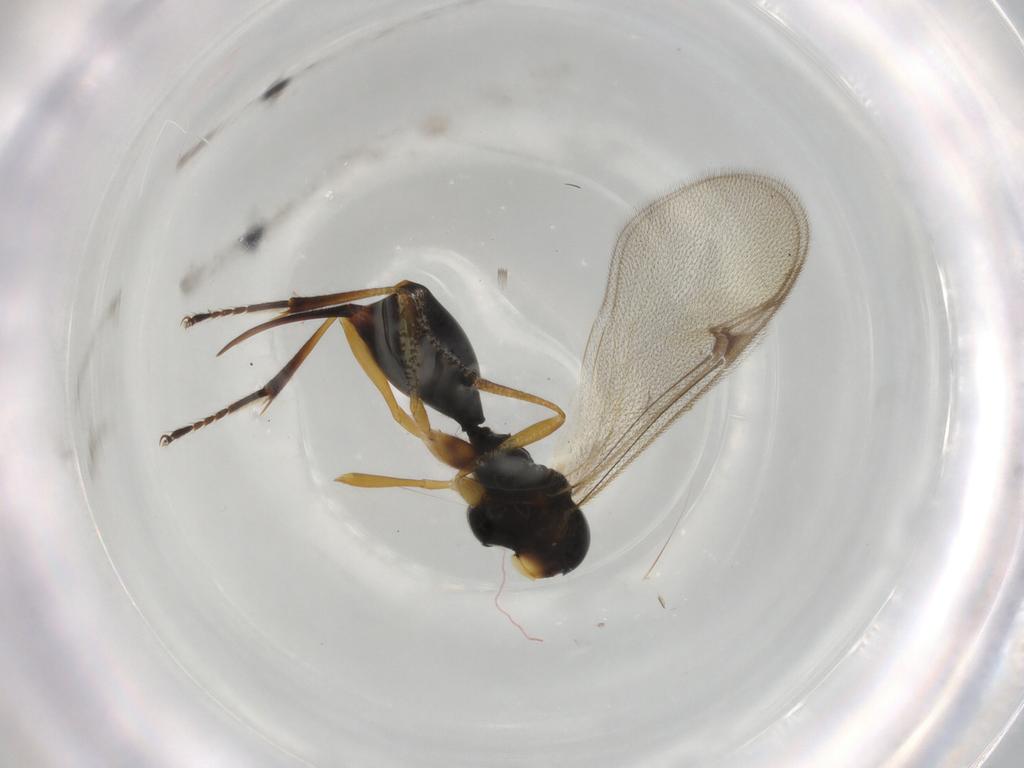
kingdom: Animalia
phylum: Arthropoda
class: Insecta
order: Hymenoptera
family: Proctotrupidae
